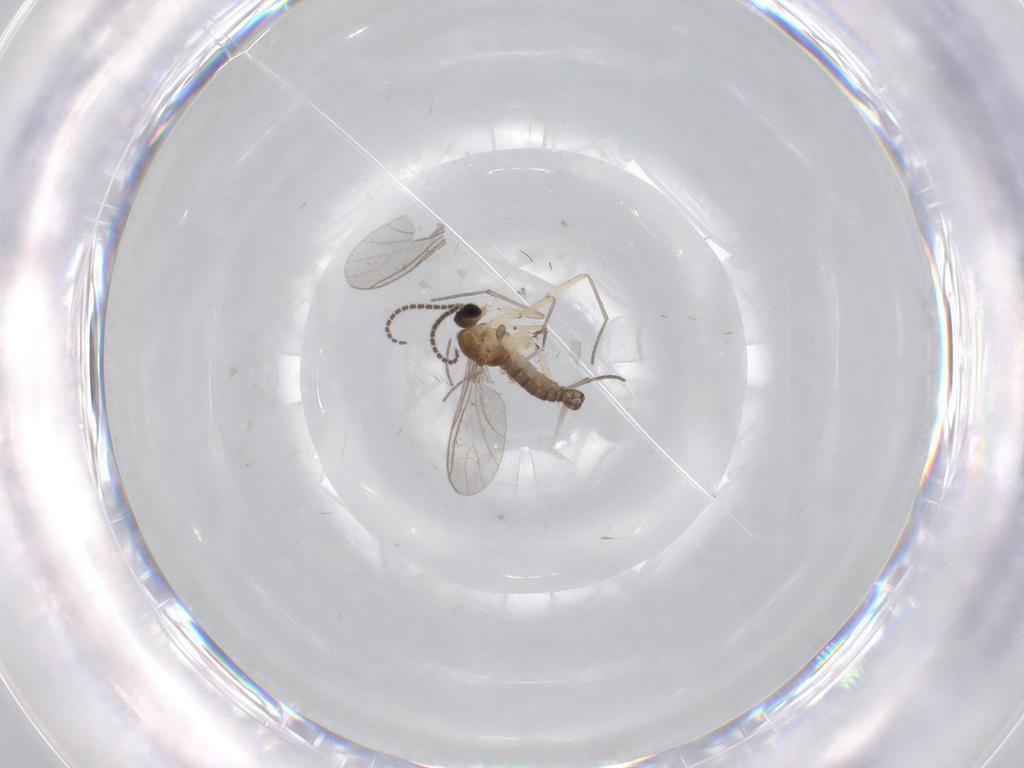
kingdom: Animalia
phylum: Arthropoda
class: Insecta
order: Diptera
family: Sciaridae
